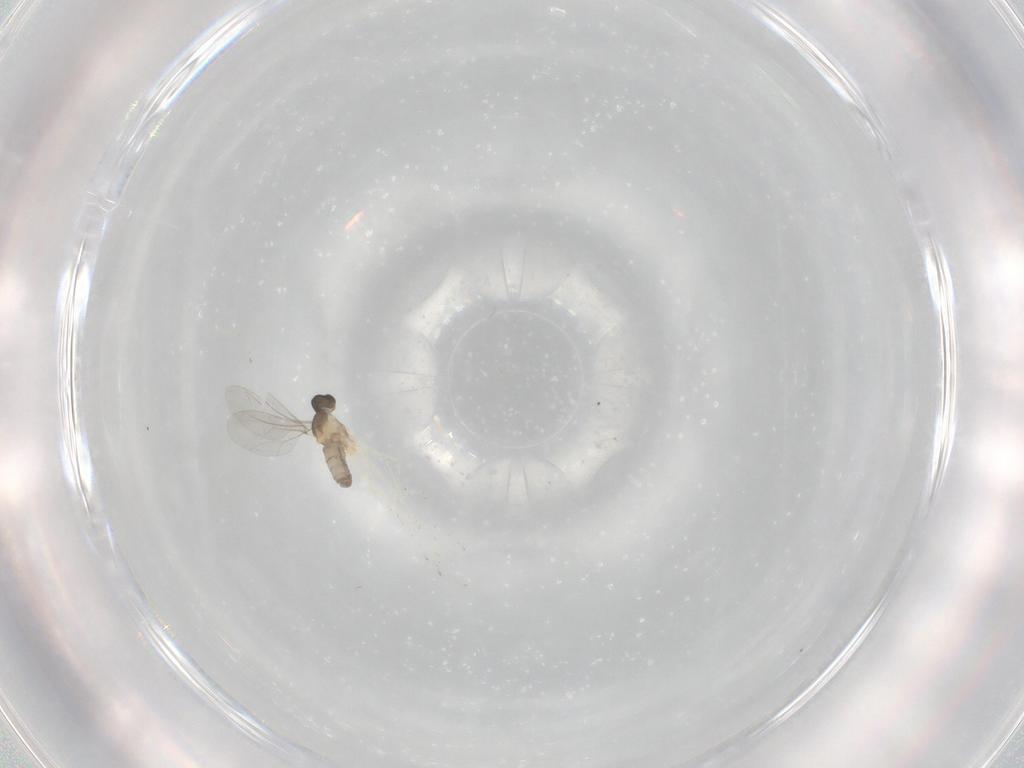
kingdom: Animalia
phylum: Arthropoda
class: Insecta
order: Diptera
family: Cecidomyiidae
